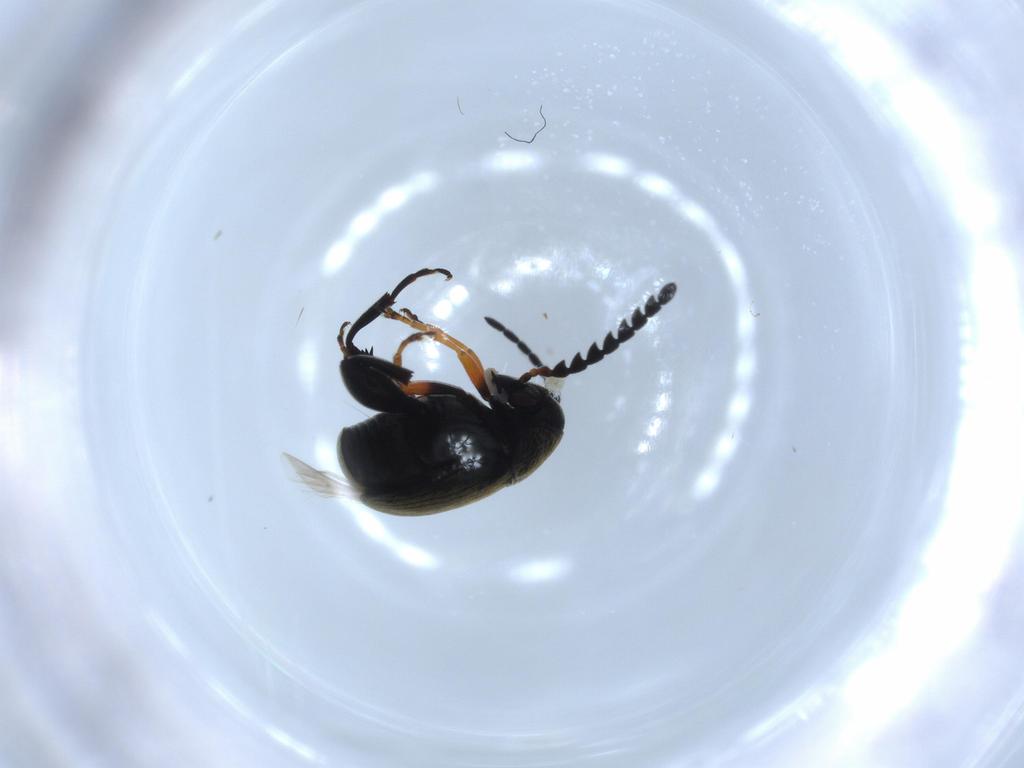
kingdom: Animalia
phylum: Arthropoda
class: Insecta
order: Coleoptera
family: Chrysomelidae
